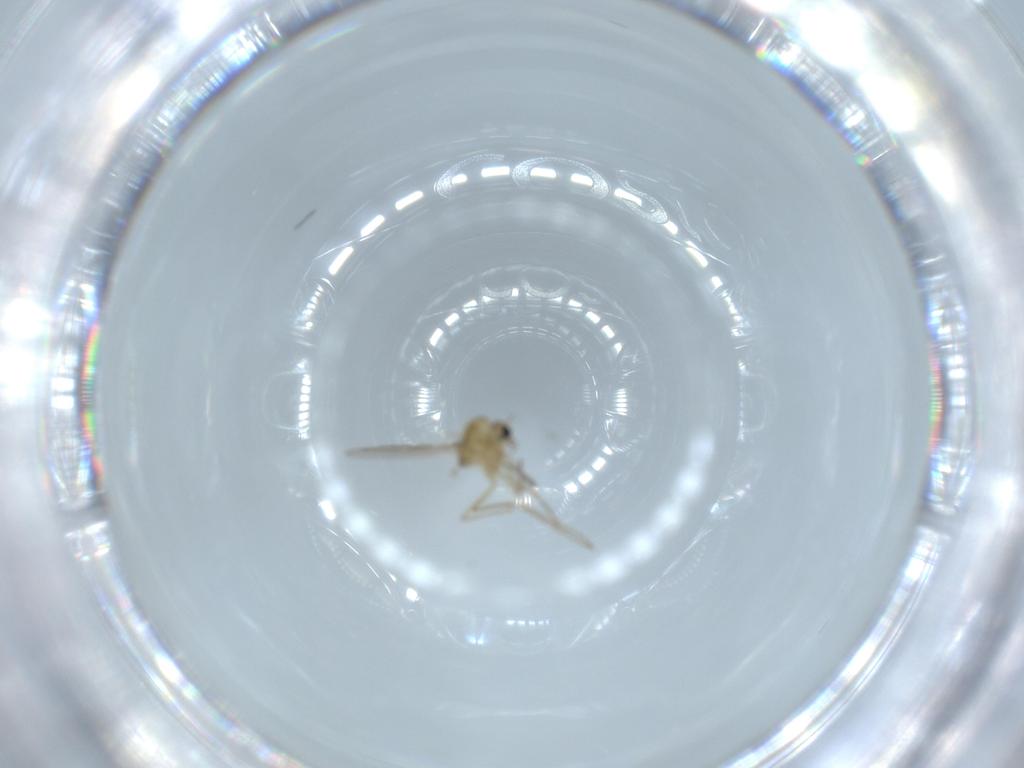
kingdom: Animalia
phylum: Arthropoda
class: Insecta
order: Diptera
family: Chironomidae
